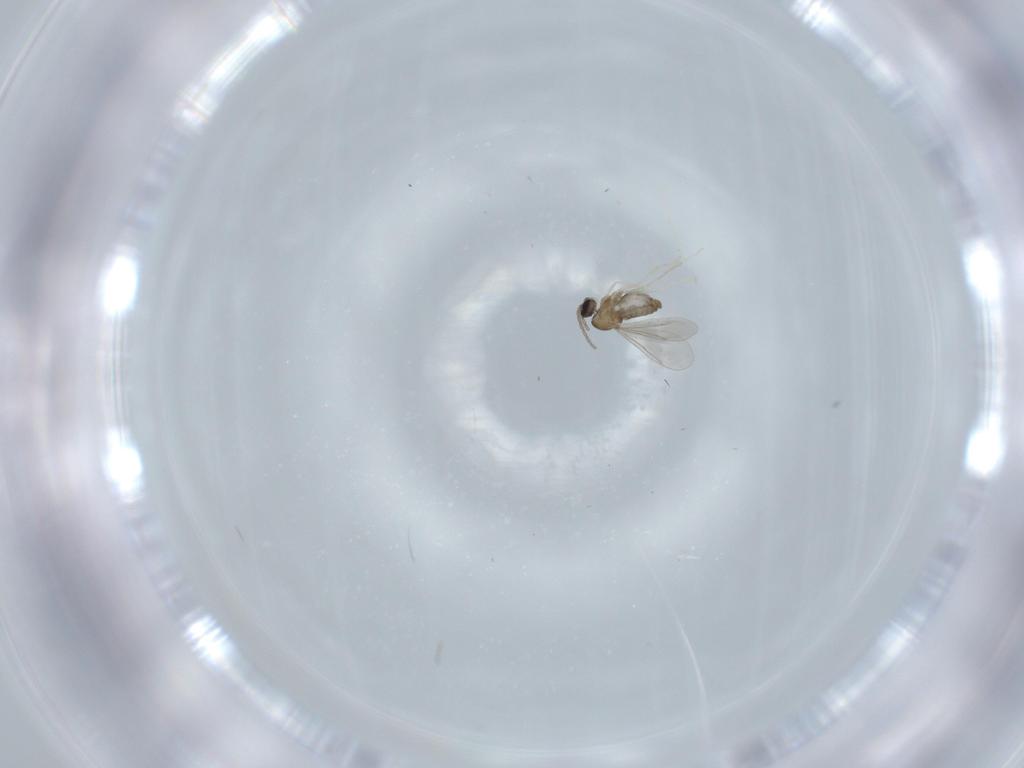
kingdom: Animalia
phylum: Arthropoda
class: Insecta
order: Diptera
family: Cecidomyiidae
